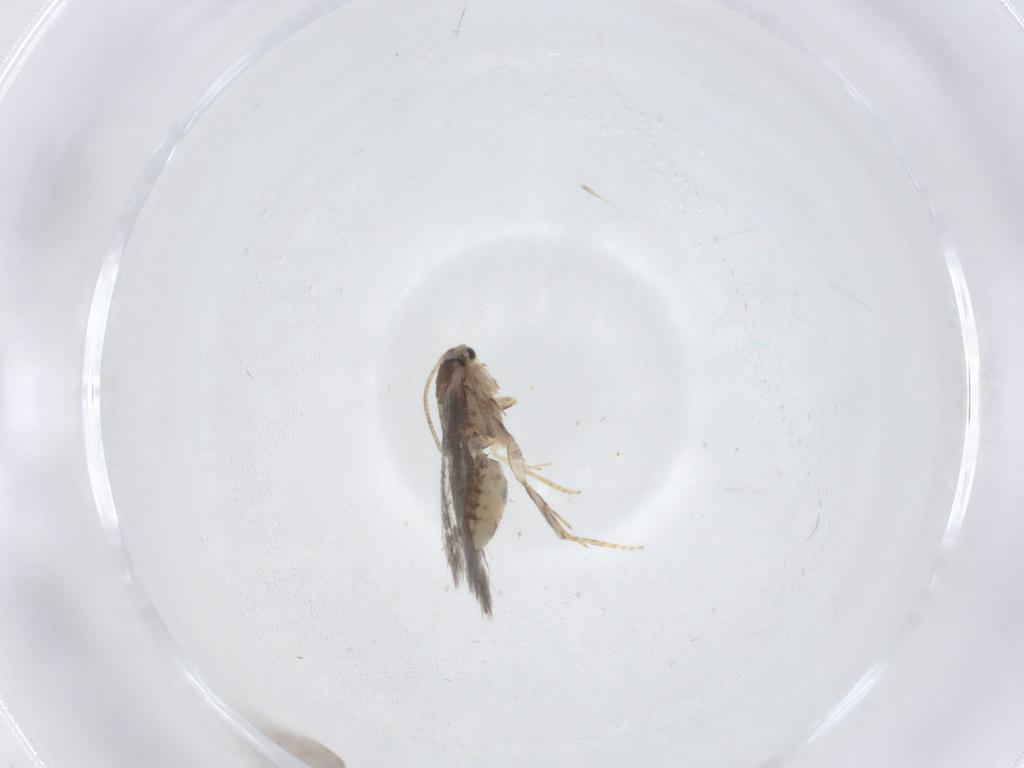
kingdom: Animalia
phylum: Arthropoda
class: Insecta
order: Lepidoptera
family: Nepticulidae
